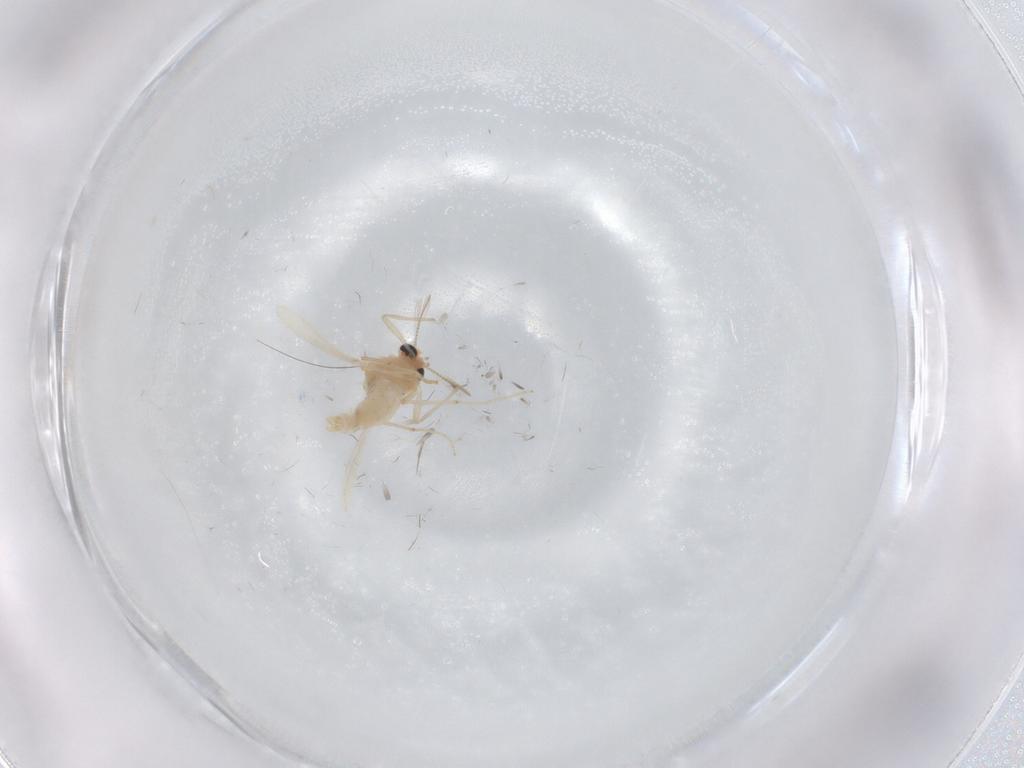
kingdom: Animalia
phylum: Arthropoda
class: Insecta
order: Diptera
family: Chironomidae
